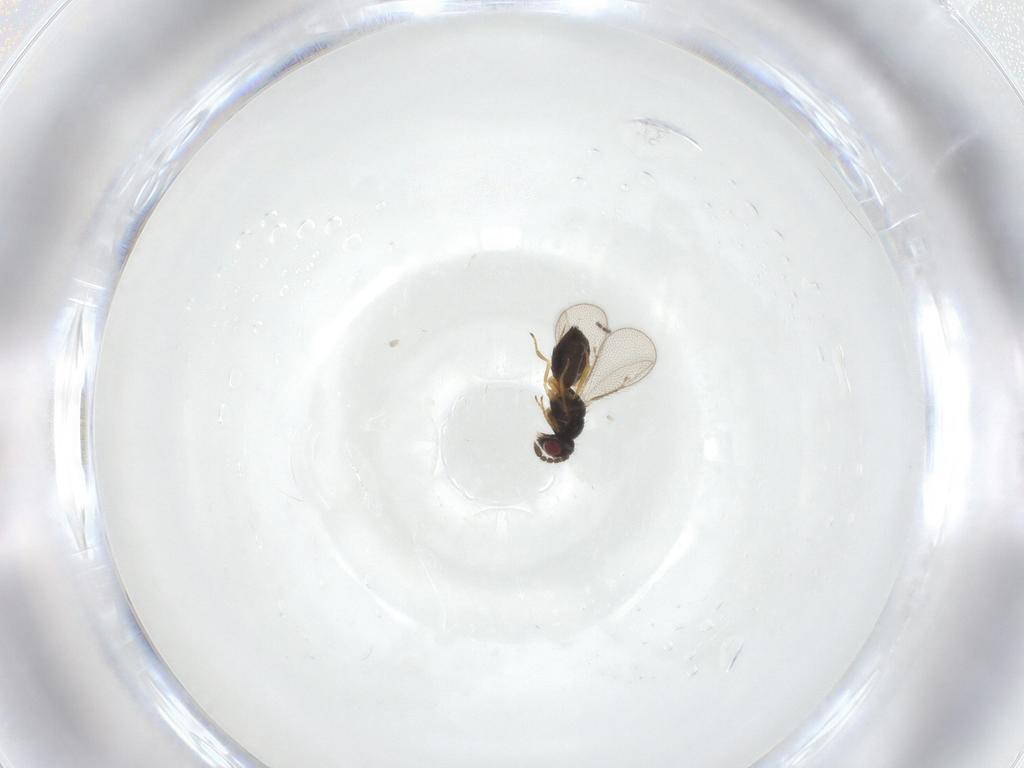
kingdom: Animalia
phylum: Arthropoda
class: Insecta
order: Hymenoptera
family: Eulophidae
